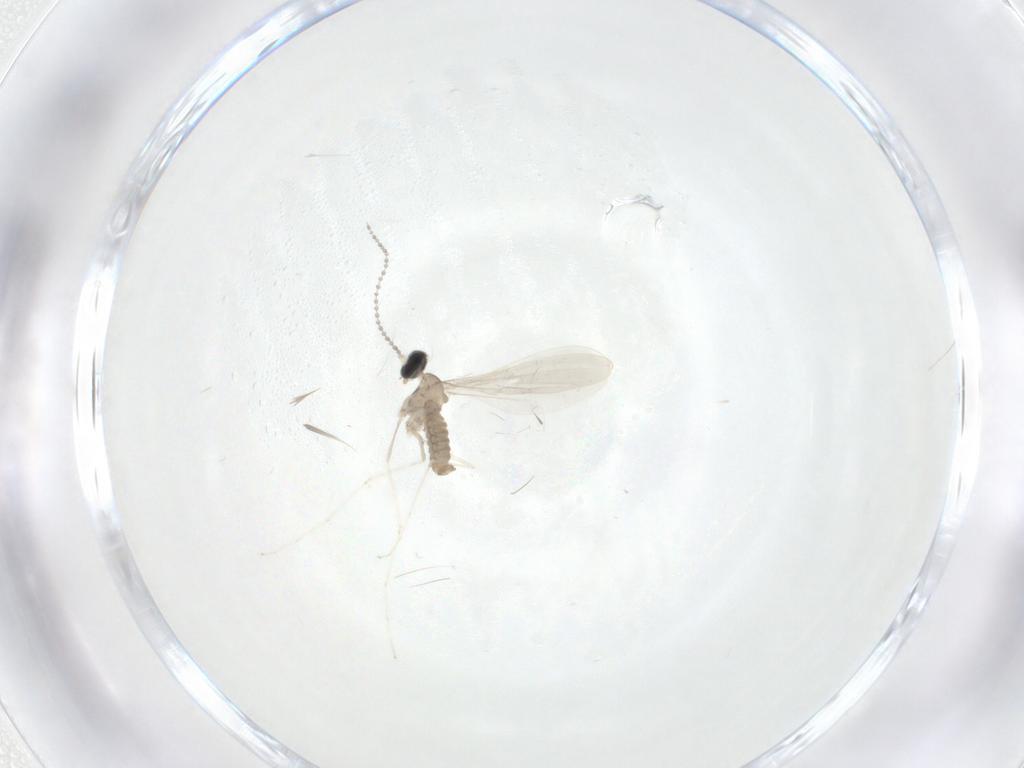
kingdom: Animalia
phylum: Arthropoda
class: Insecta
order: Diptera
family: Cecidomyiidae
